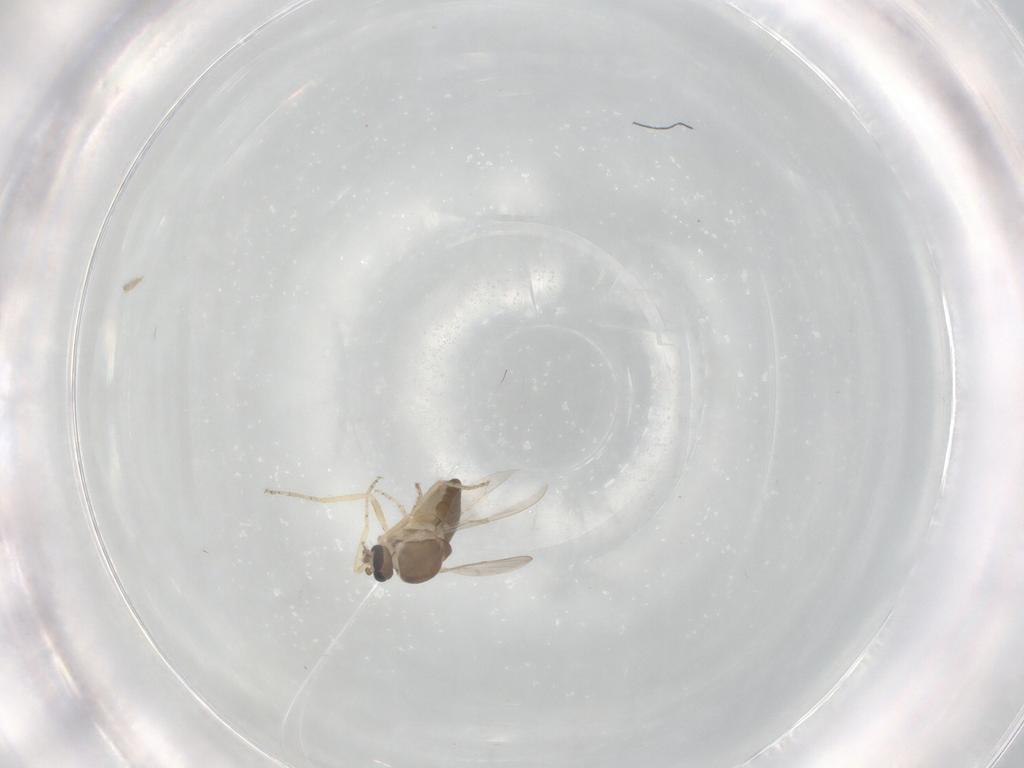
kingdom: Animalia
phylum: Arthropoda
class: Insecta
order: Diptera
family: Ceratopogonidae
